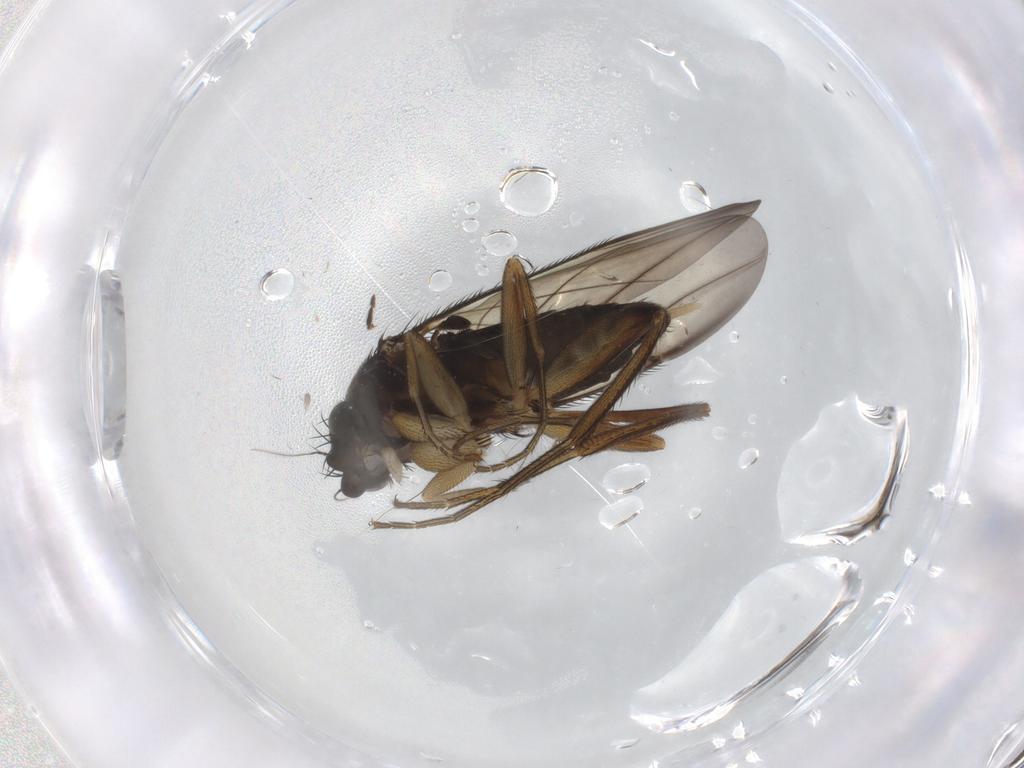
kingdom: Animalia
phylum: Arthropoda
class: Insecta
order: Diptera
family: Phoridae
